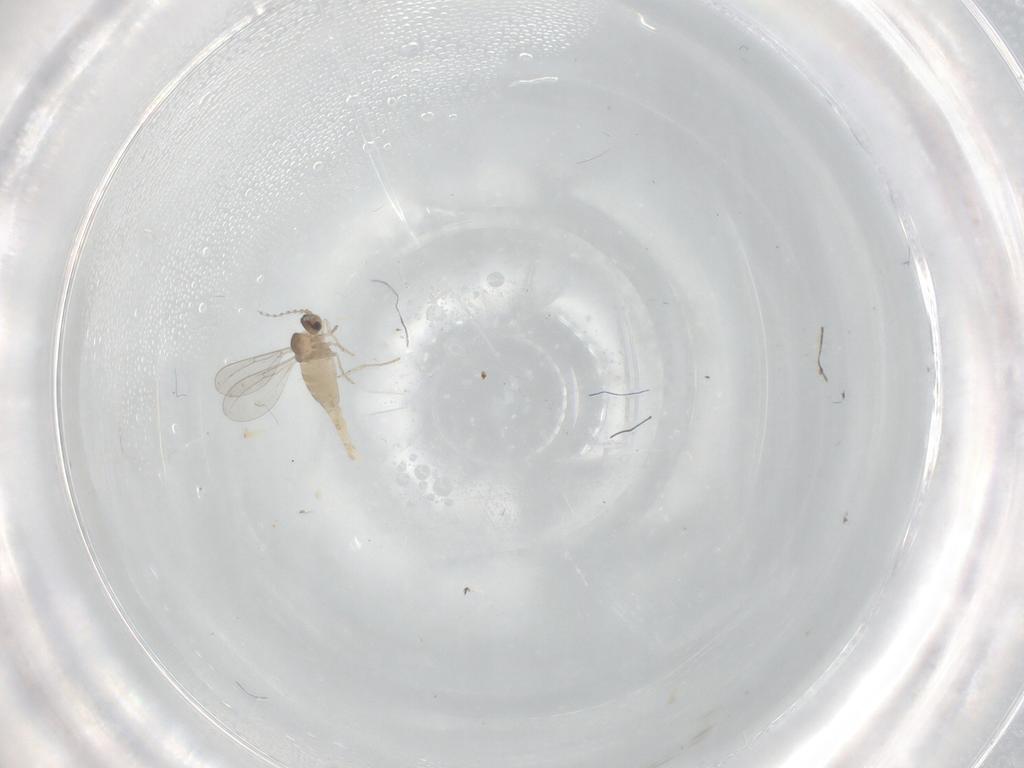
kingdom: Animalia
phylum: Arthropoda
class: Insecta
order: Diptera
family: Cecidomyiidae
